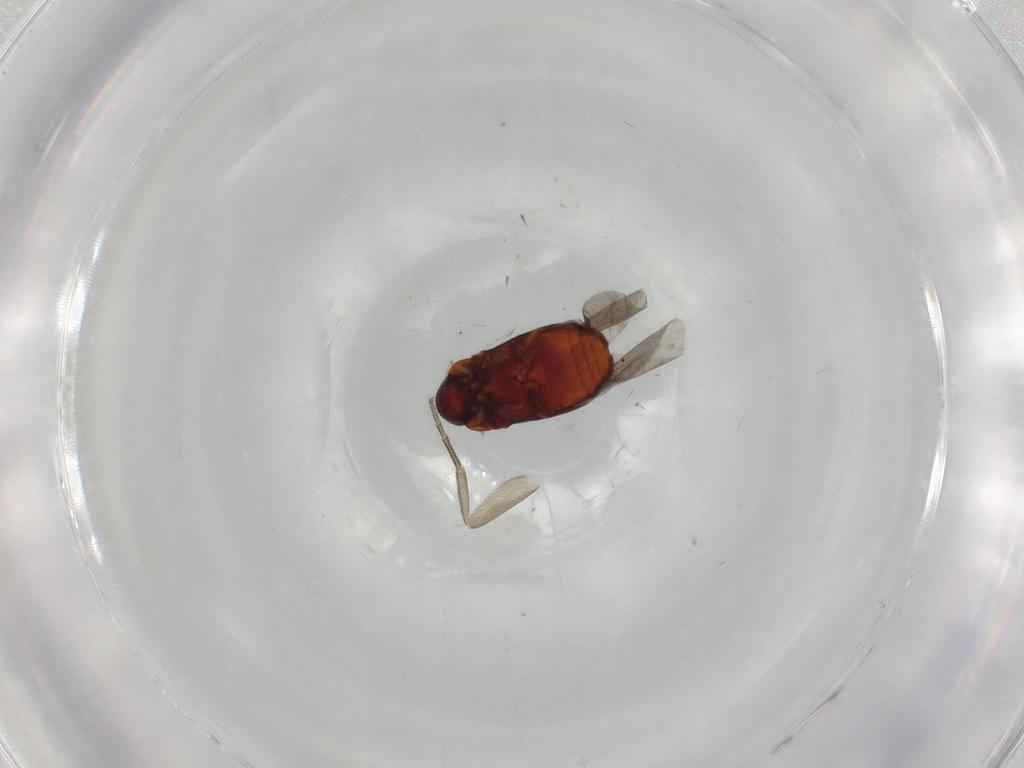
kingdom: Animalia
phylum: Arthropoda
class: Insecta
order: Coleoptera
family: Ptinidae
